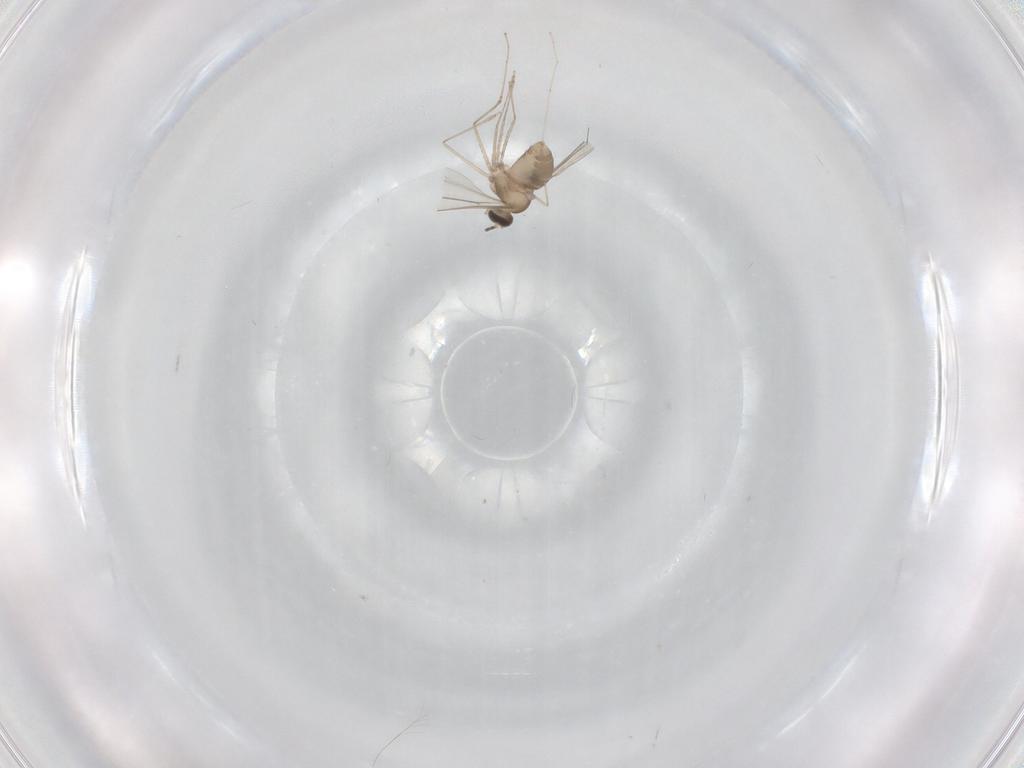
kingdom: Animalia
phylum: Arthropoda
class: Insecta
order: Diptera
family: Cecidomyiidae
